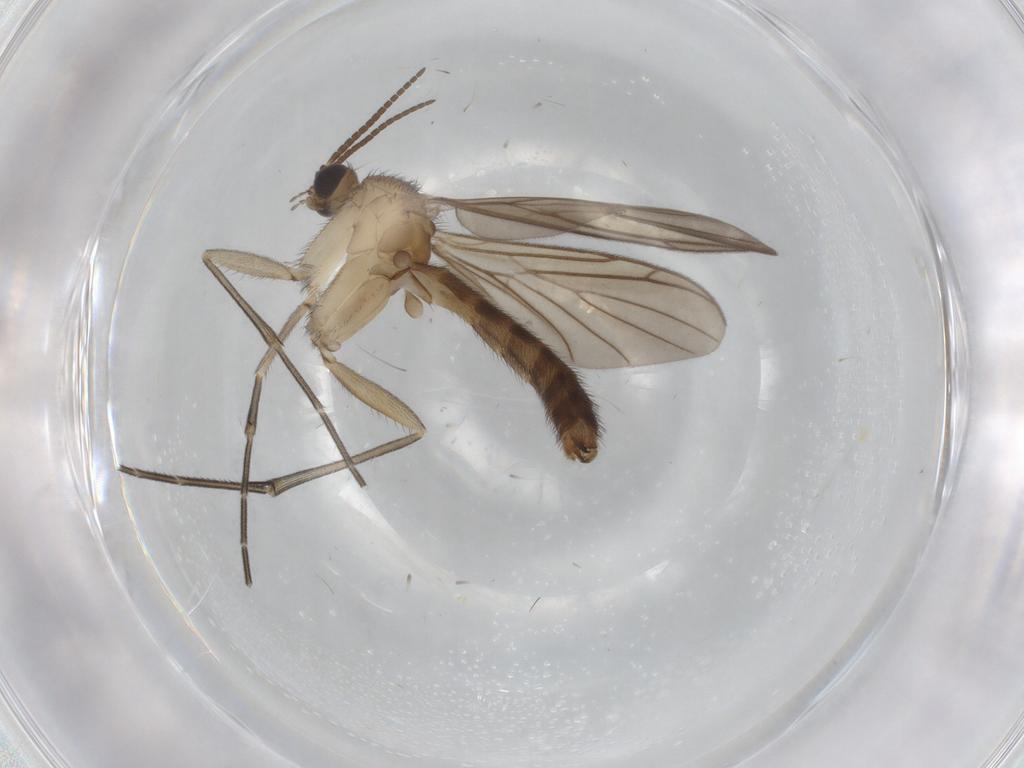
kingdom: Animalia
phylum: Arthropoda
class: Insecta
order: Diptera
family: Keroplatidae
